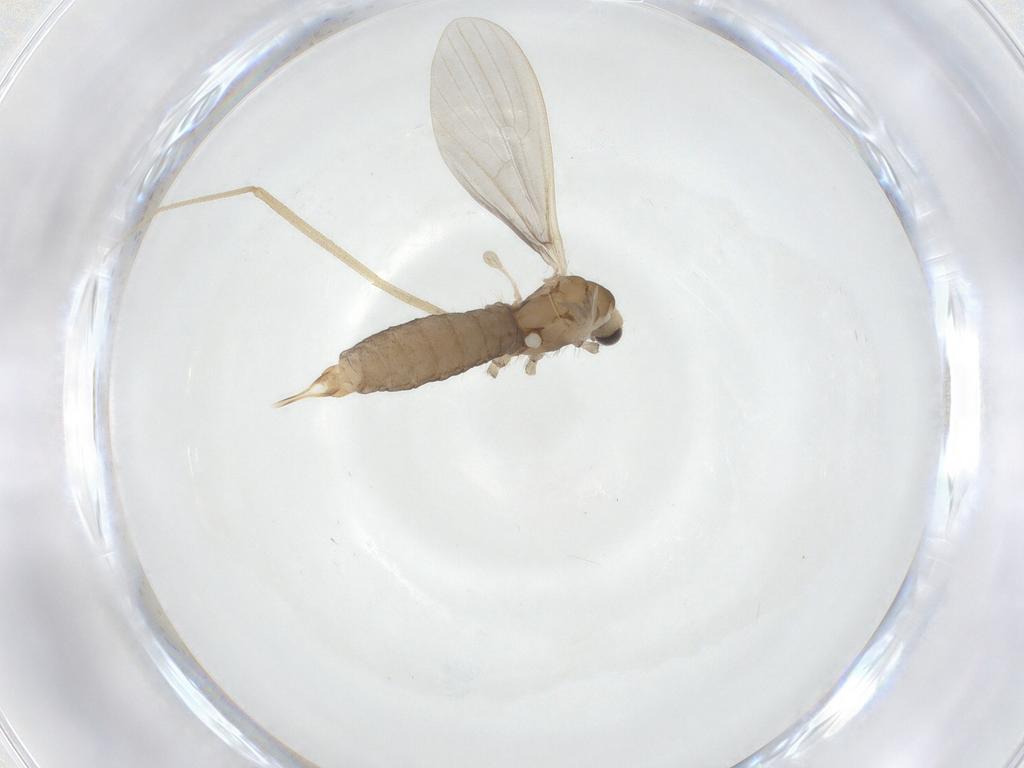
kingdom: Animalia
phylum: Arthropoda
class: Insecta
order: Diptera
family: Limoniidae
